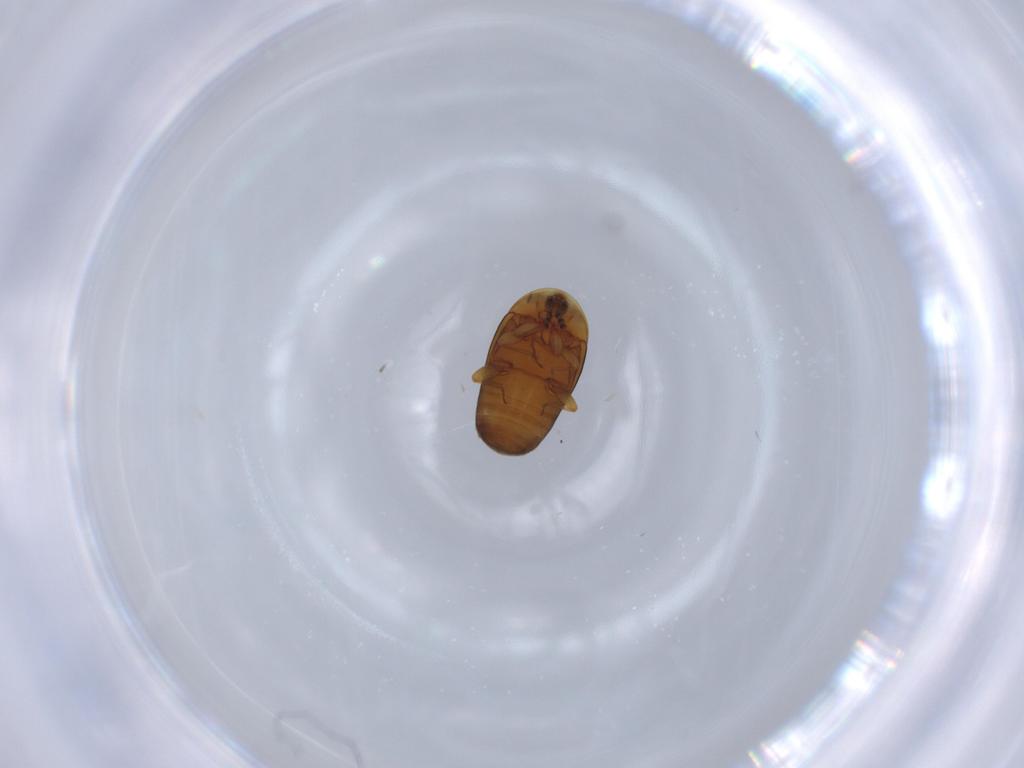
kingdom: Animalia
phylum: Arthropoda
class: Insecta
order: Coleoptera
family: Corylophidae
